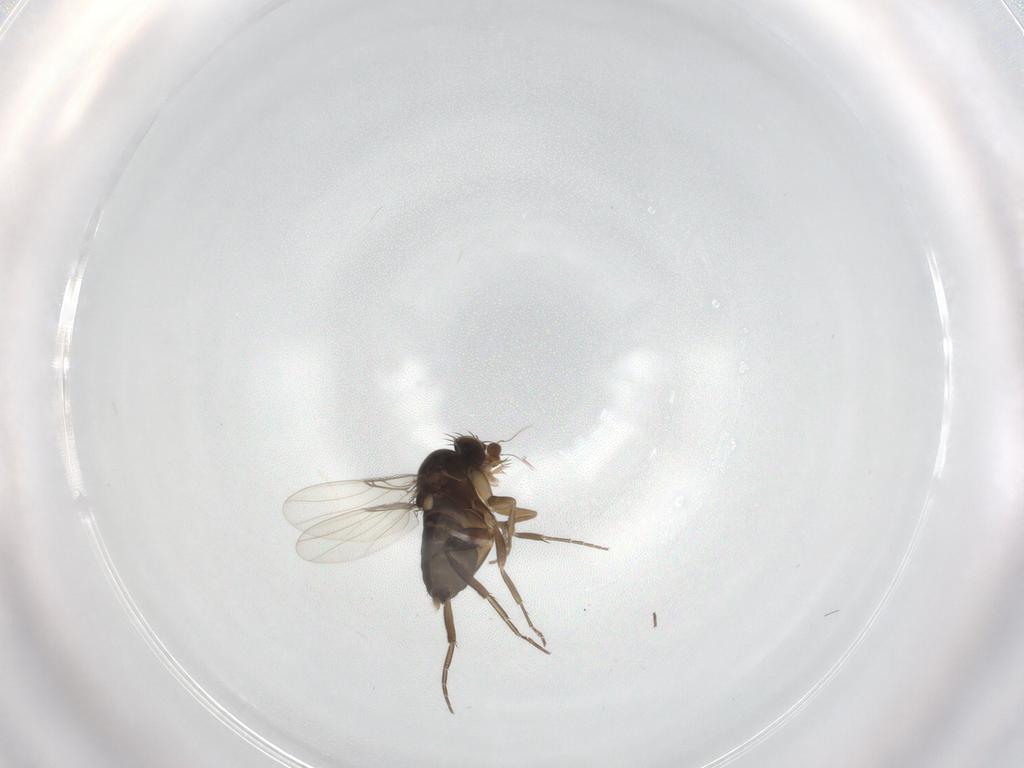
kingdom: Animalia
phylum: Arthropoda
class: Insecta
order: Diptera
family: Phoridae
